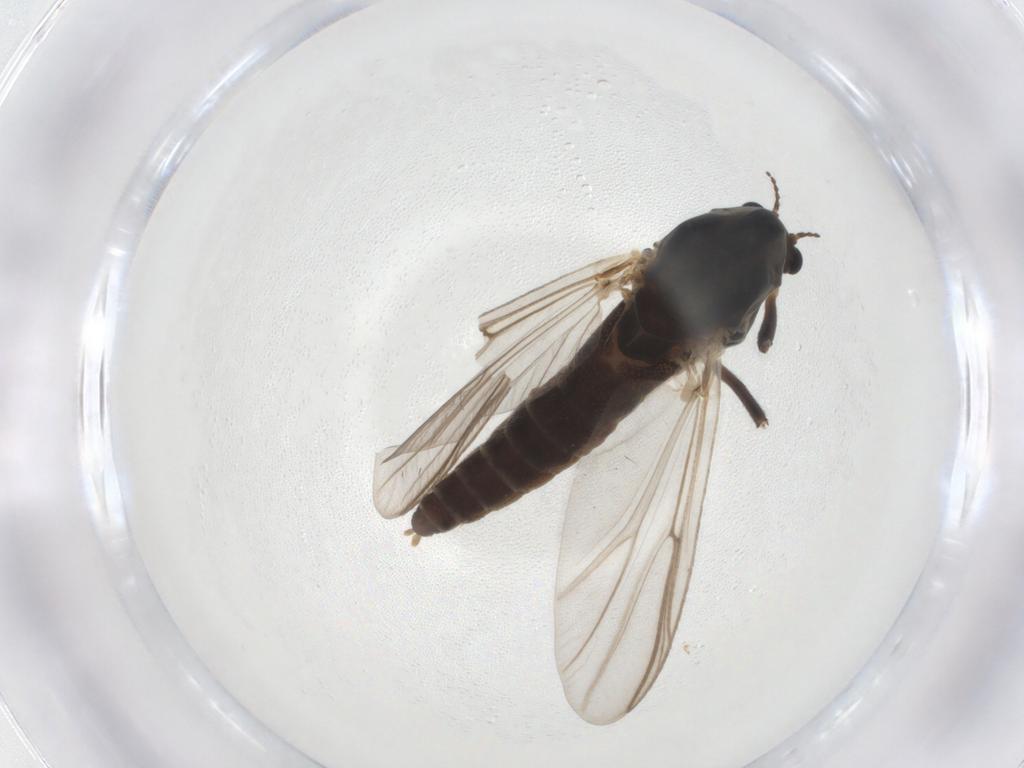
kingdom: Animalia
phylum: Arthropoda
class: Insecta
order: Diptera
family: Chironomidae
